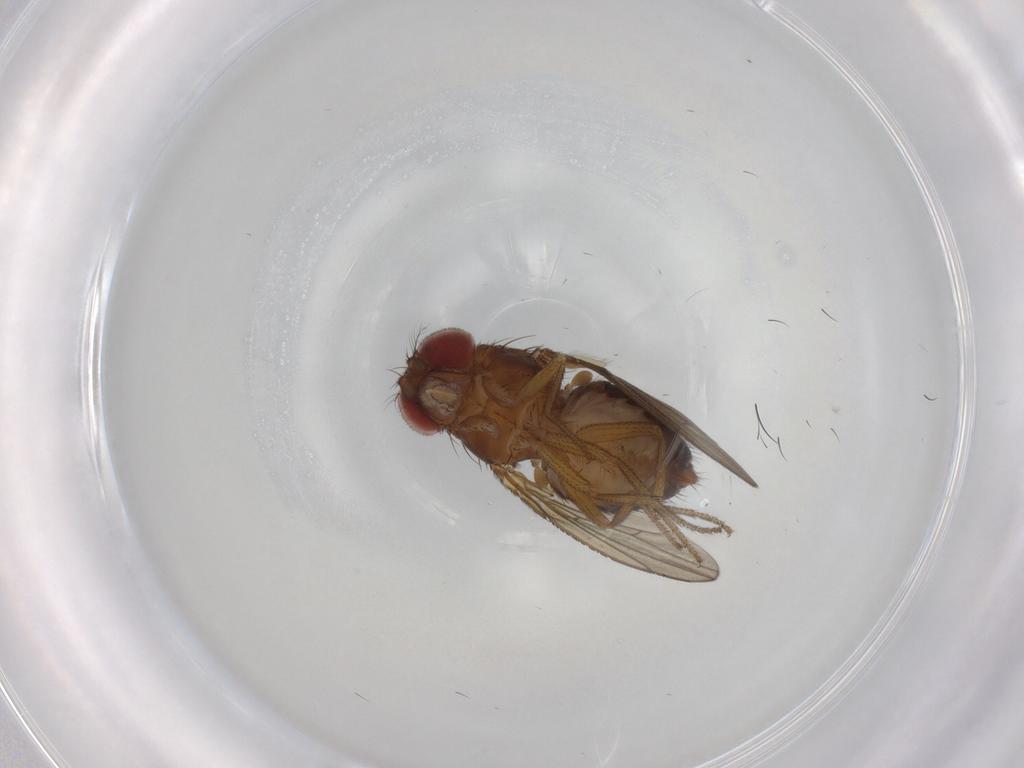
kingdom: Animalia
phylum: Arthropoda
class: Insecta
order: Diptera
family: Drosophilidae
